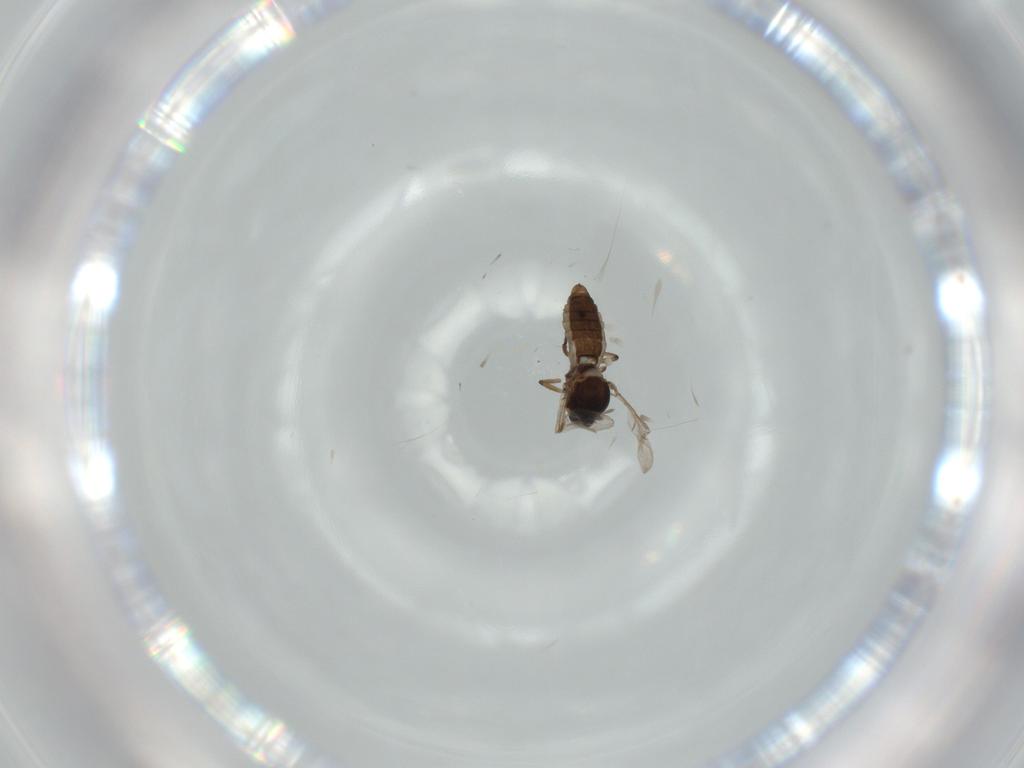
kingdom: Animalia
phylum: Arthropoda
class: Insecta
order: Diptera
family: Ceratopogonidae
